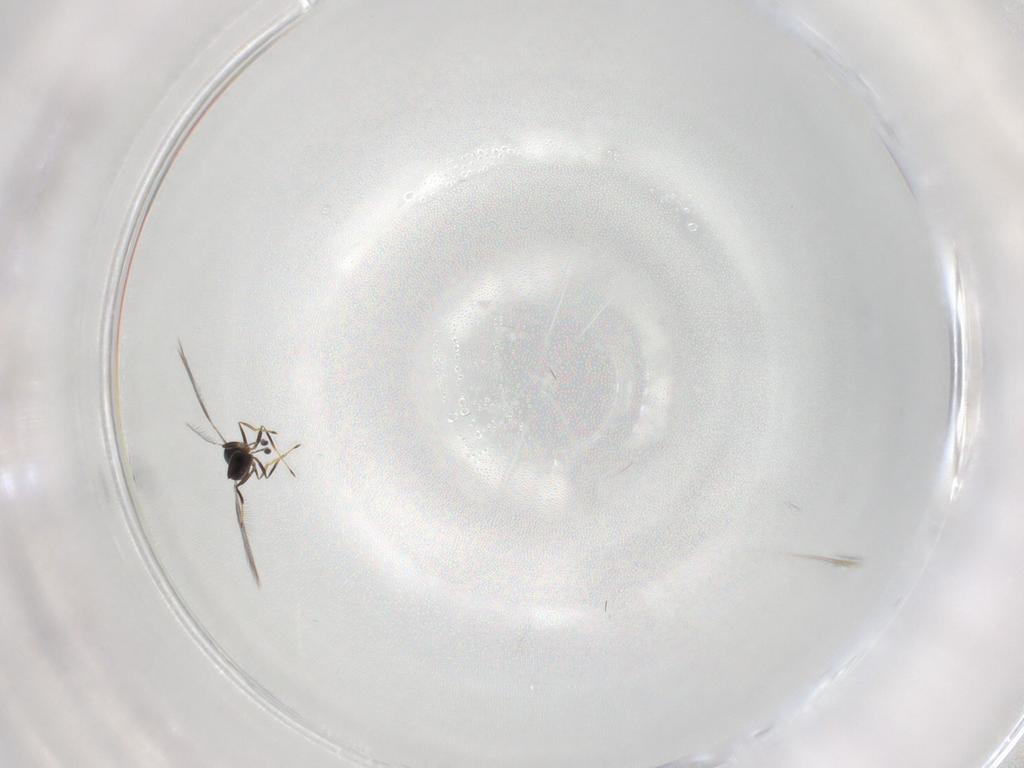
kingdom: Animalia
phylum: Arthropoda
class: Insecta
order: Hymenoptera
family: Mymaridae
